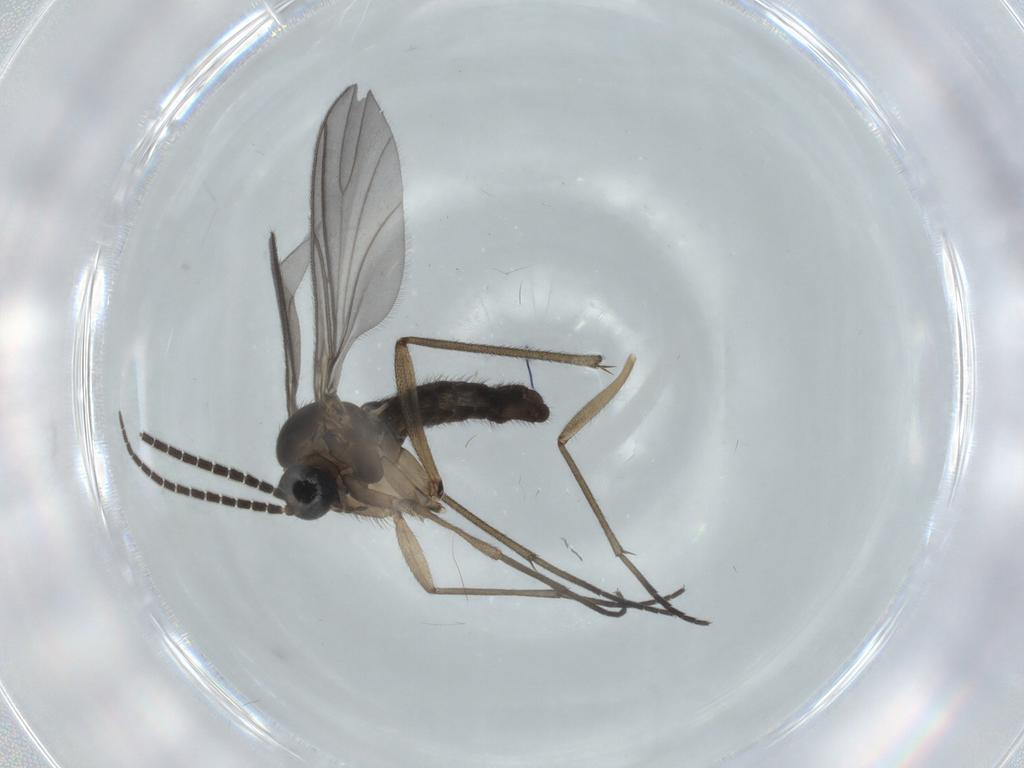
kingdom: Animalia
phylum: Arthropoda
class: Insecta
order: Diptera
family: Sciaridae
